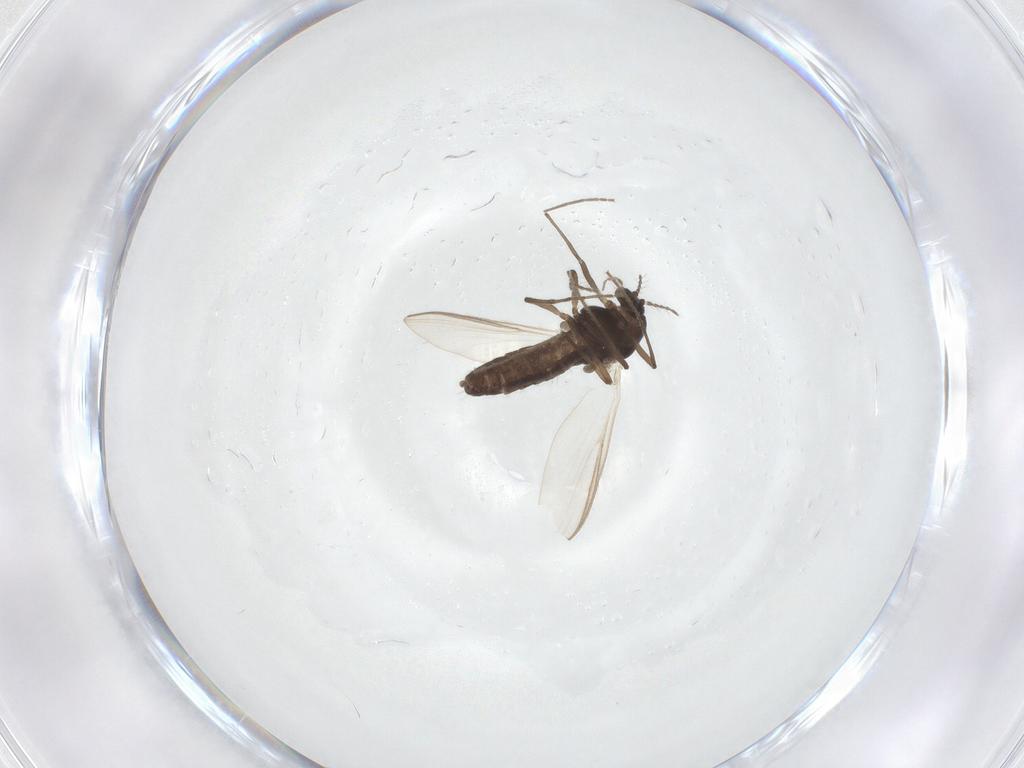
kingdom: Animalia
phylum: Arthropoda
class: Insecta
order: Diptera
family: Chironomidae
